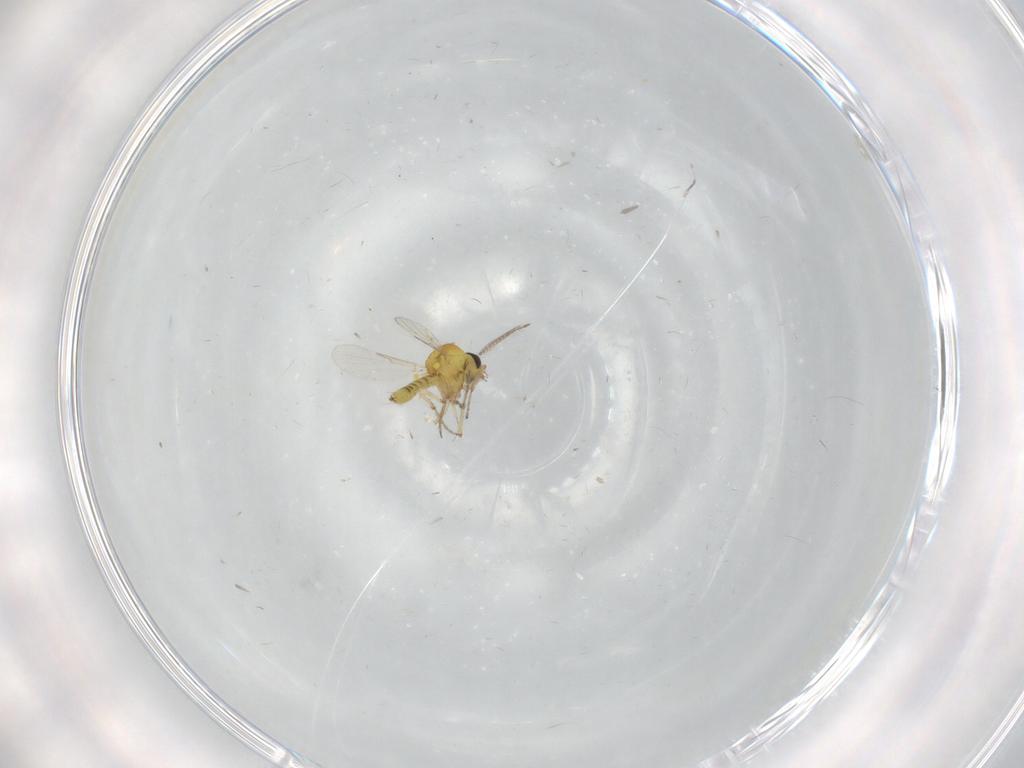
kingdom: Animalia
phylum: Arthropoda
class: Insecta
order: Diptera
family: Ceratopogonidae
